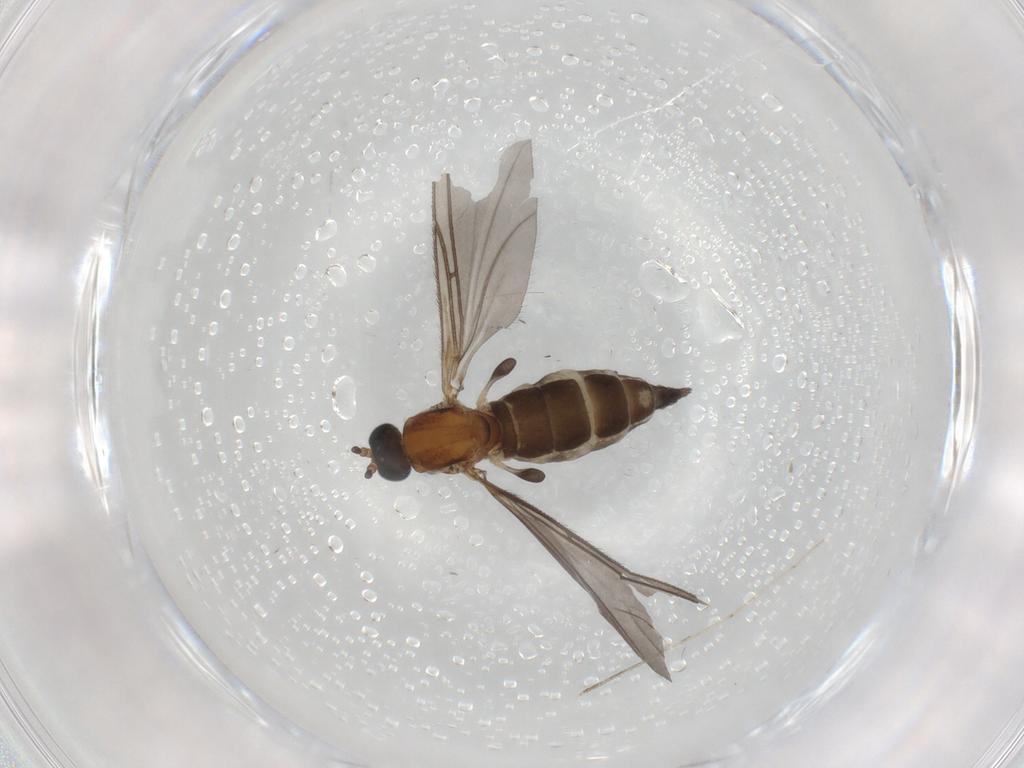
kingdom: Animalia
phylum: Arthropoda
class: Insecta
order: Diptera
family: Sciaridae
